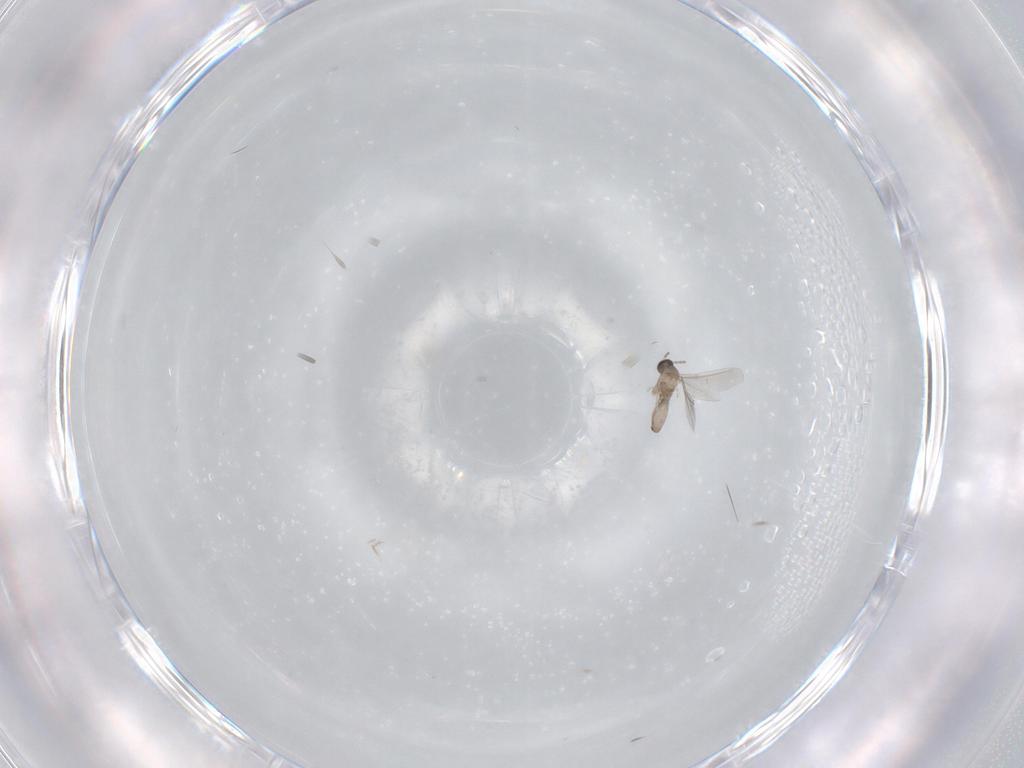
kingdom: Animalia
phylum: Arthropoda
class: Insecta
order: Diptera
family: Cecidomyiidae
